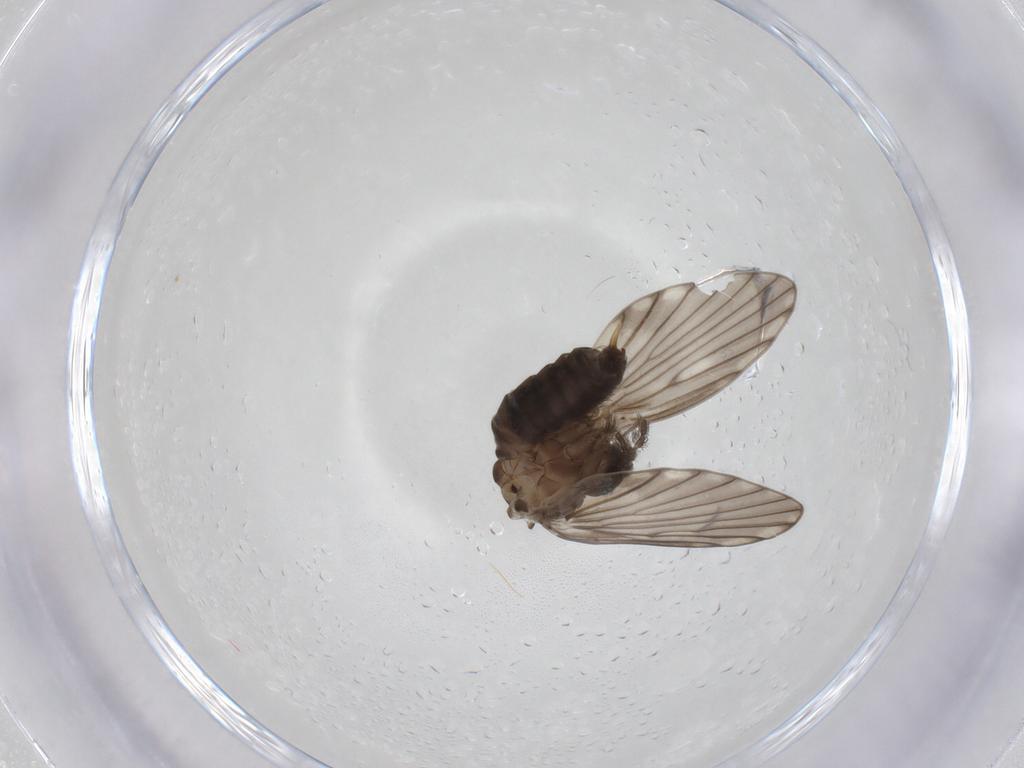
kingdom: Animalia
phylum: Arthropoda
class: Insecta
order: Diptera
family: Psychodidae
